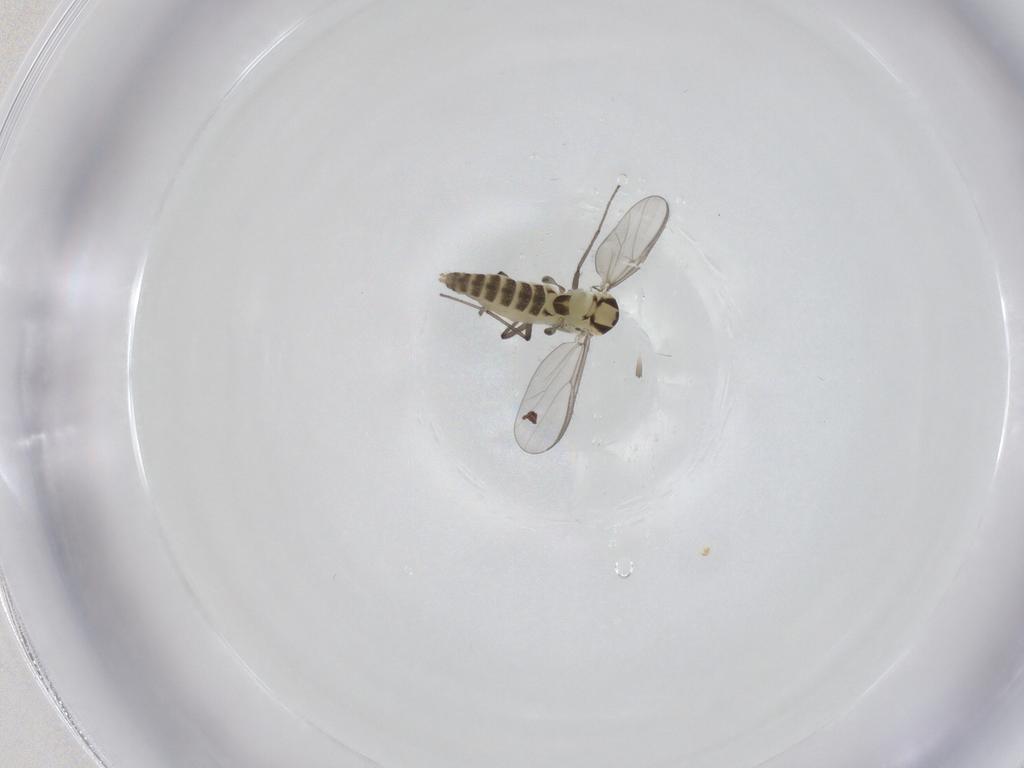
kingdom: Animalia
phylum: Arthropoda
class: Insecta
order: Diptera
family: Chironomidae
